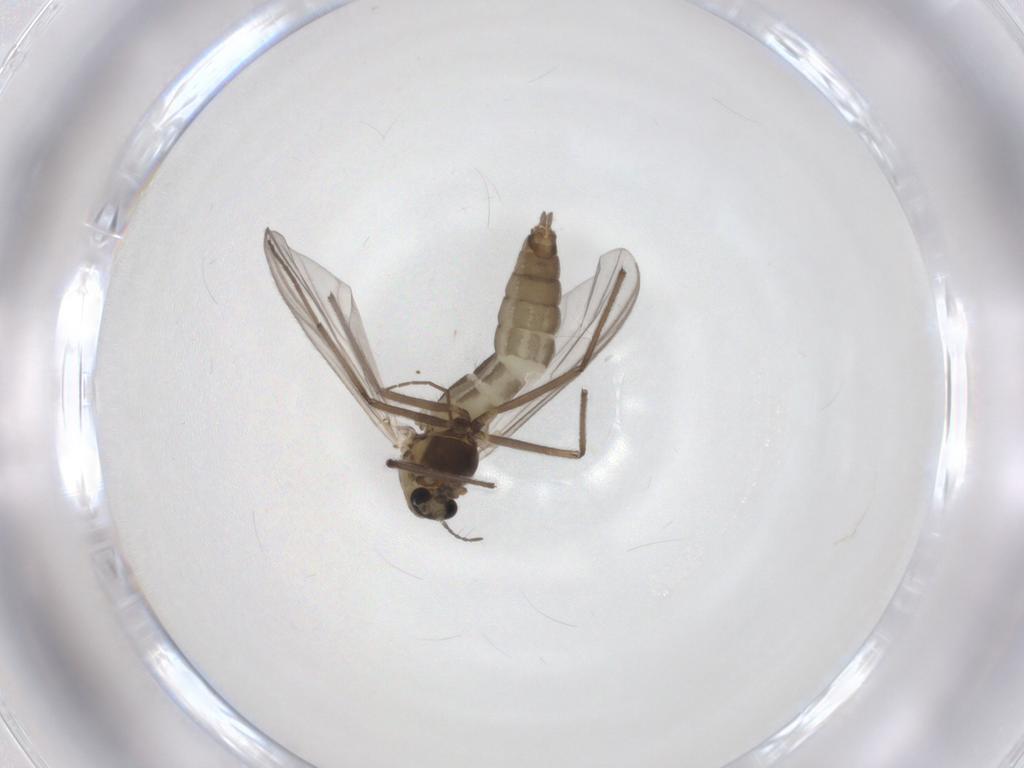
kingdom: Animalia
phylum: Arthropoda
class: Insecta
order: Diptera
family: Chironomidae
